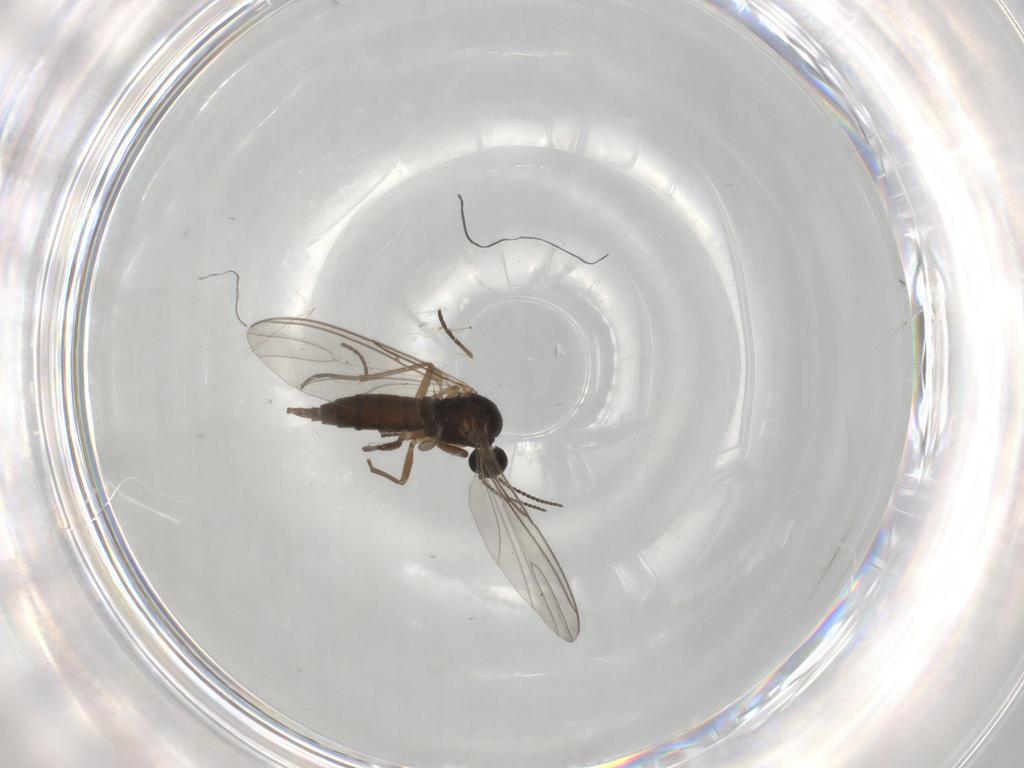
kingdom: Animalia
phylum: Arthropoda
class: Insecta
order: Diptera
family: Sciaridae
